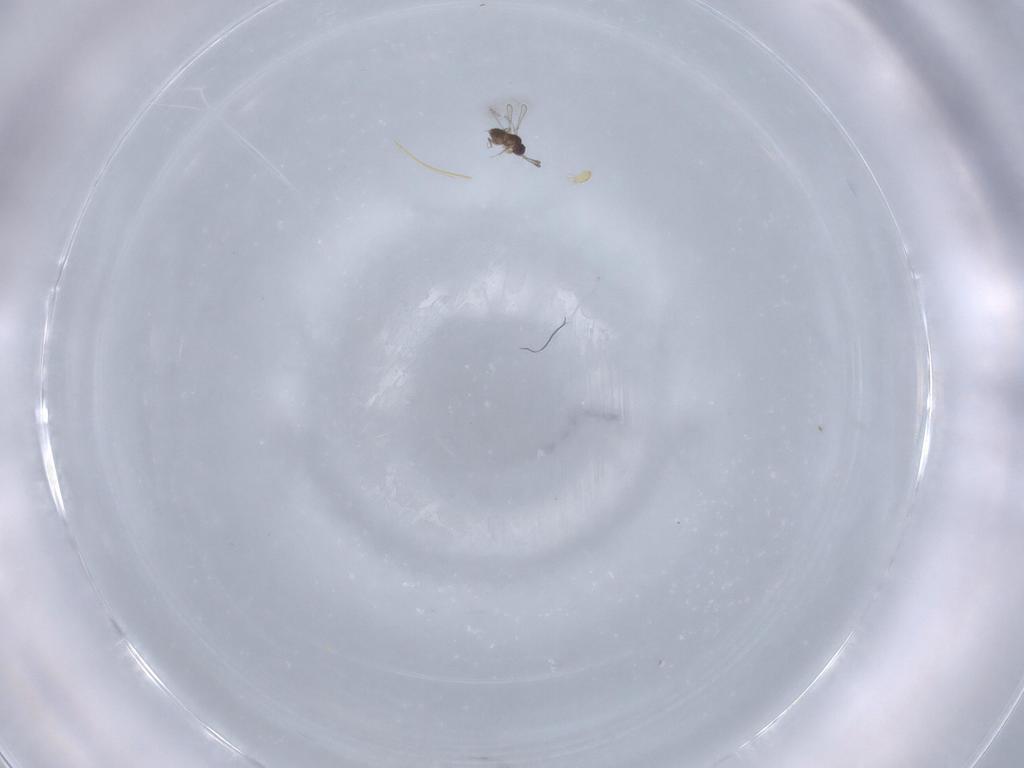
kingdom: Animalia
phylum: Arthropoda
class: Insecta
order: Hymenoptera
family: Mymaridae
